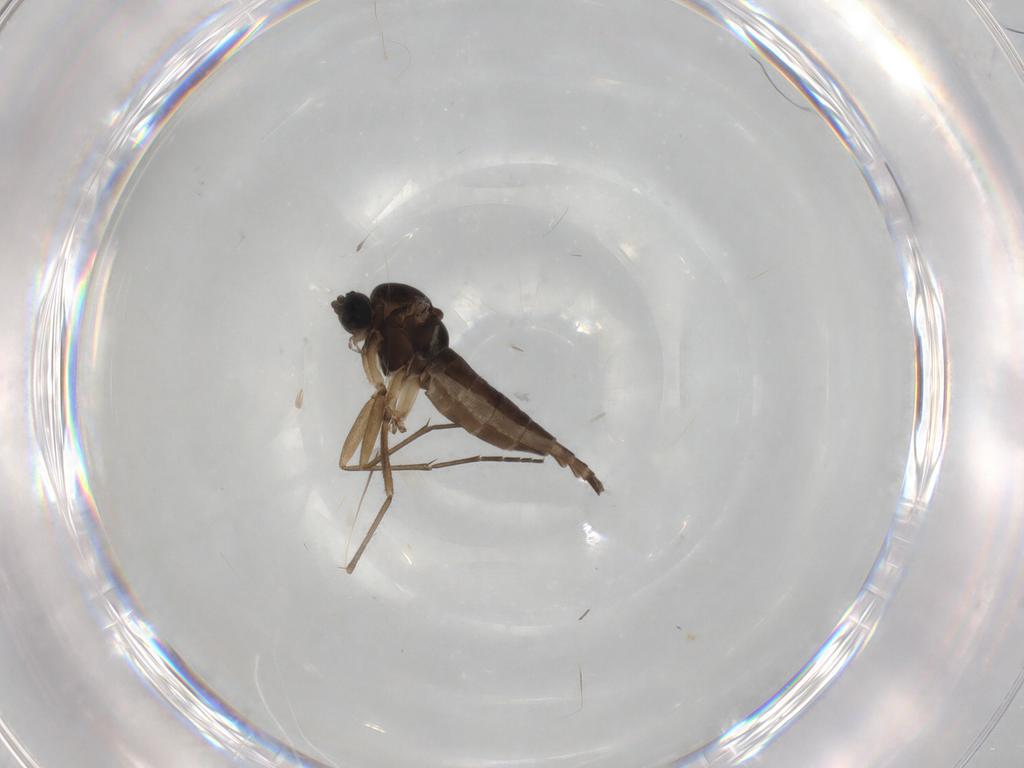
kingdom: Animalia
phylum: Arthropoda
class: Insecta
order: Diptera
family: Sciaridae
